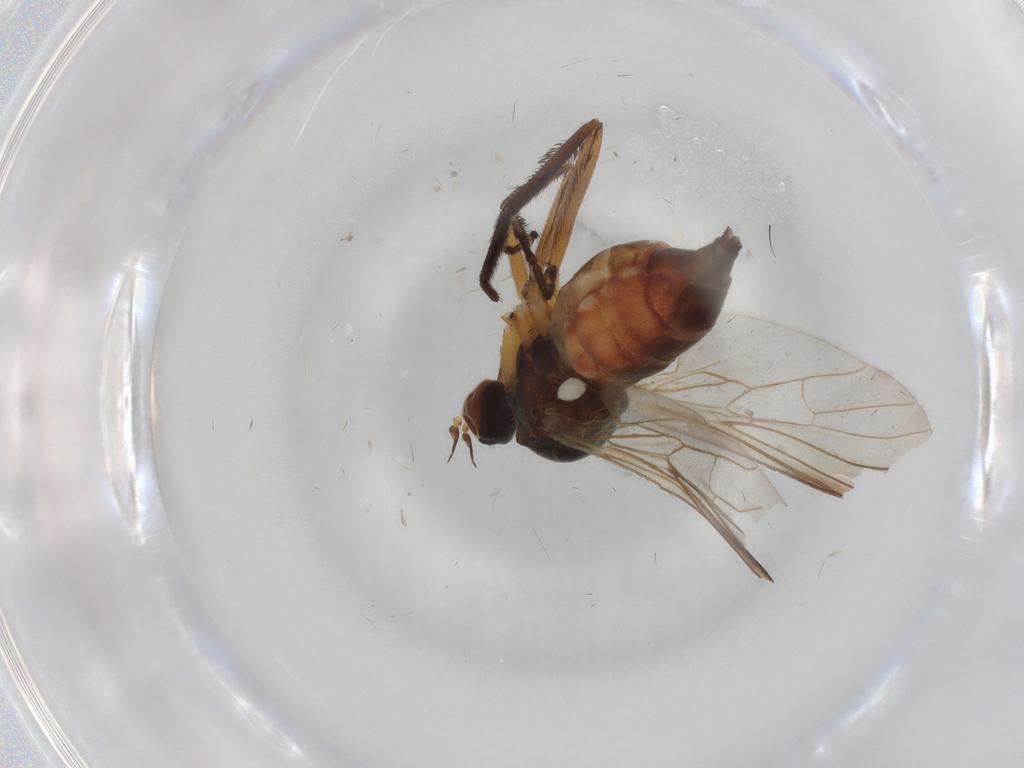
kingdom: Animalia
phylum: Arthropoda
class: Insecta
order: Diptera
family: Dolichopodidae
